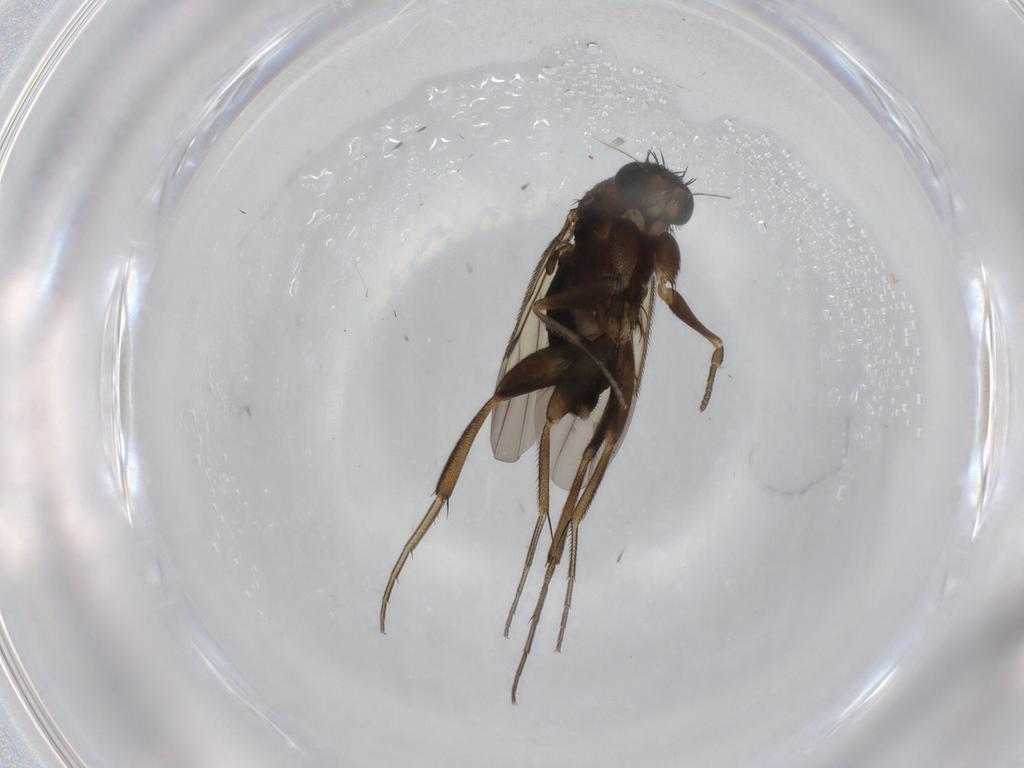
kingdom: Animalia
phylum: Arthropoda
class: Insecta
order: Diptera
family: Phoridae
